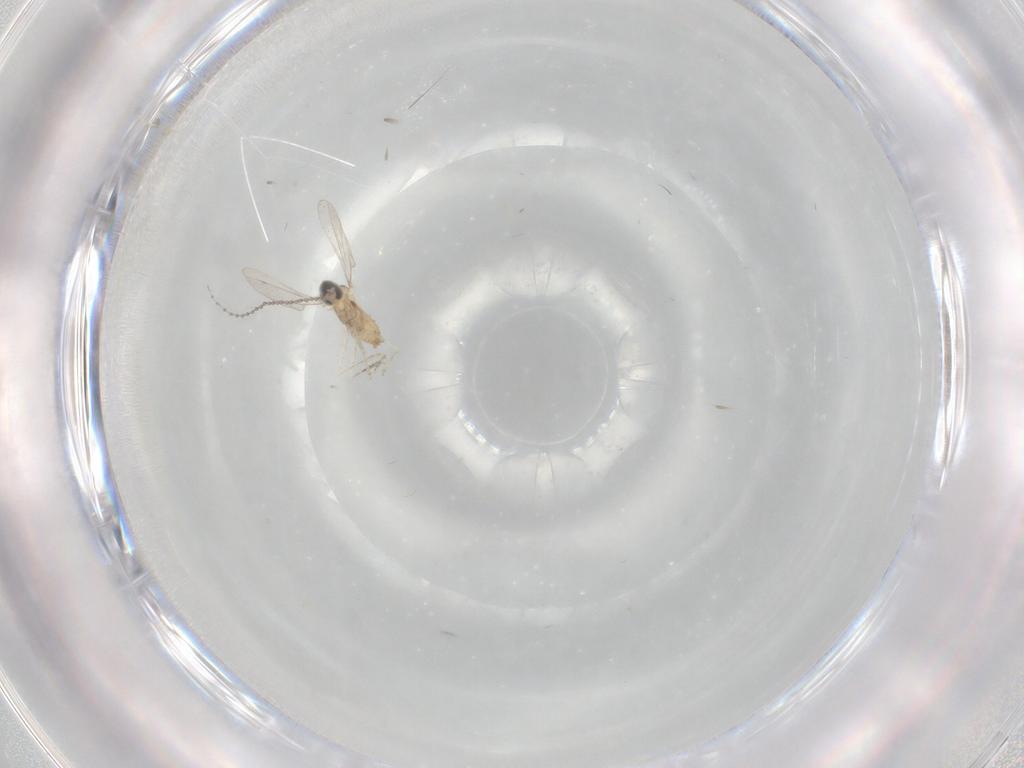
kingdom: Animalia
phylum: Arthropoda
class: Insecta
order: Diptera
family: Cecidomyiidae
